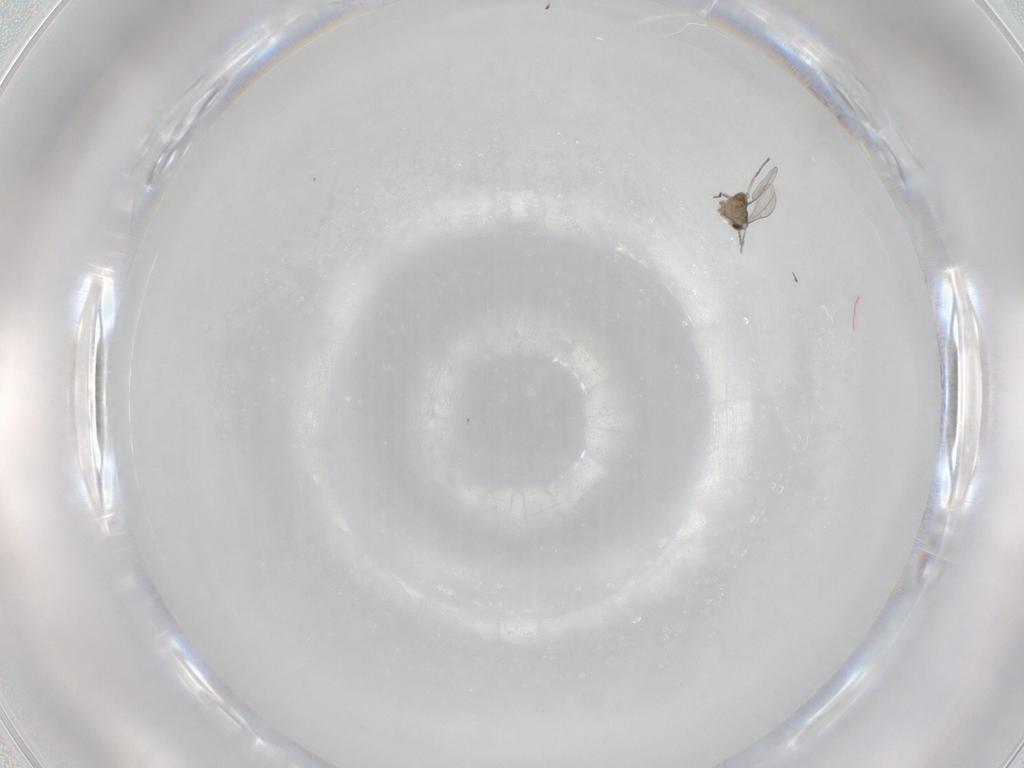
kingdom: Animalia
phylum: Arthropoda
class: Insecta
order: Diptera
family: Cecidomyiidae
